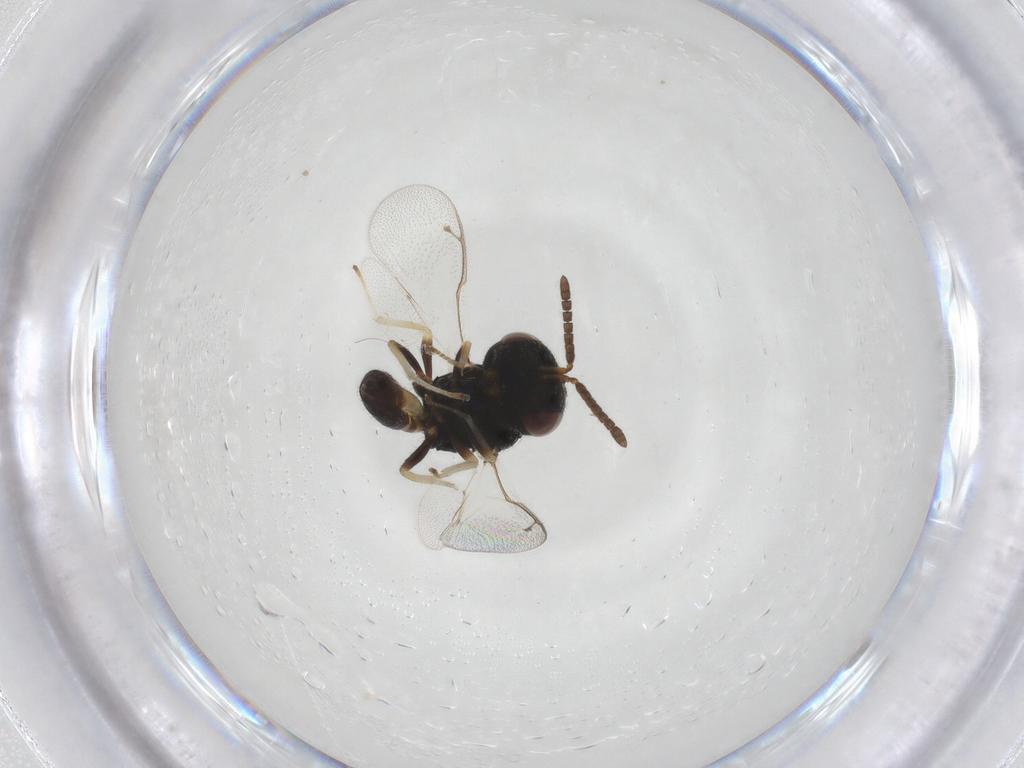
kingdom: Animalia
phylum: Arthropoda
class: Insecta
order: Hymenoptera
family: Pteromalidae
